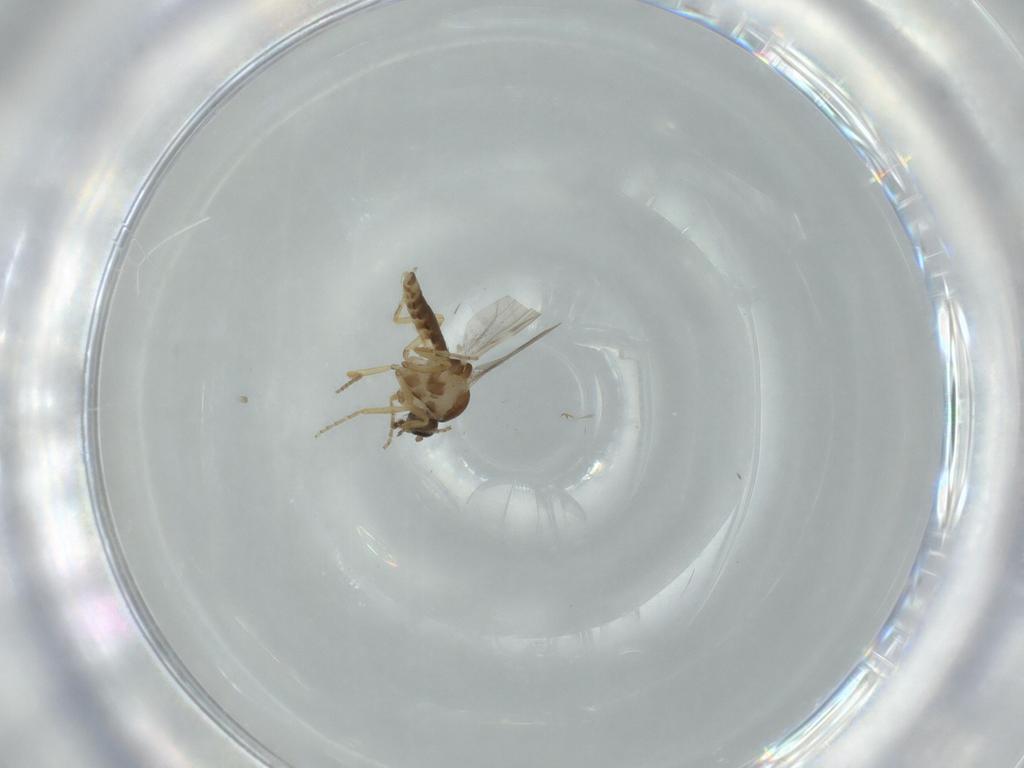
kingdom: Animalia
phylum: Arthropoda
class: Insecta
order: Diptera
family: Ceratopogonidae
